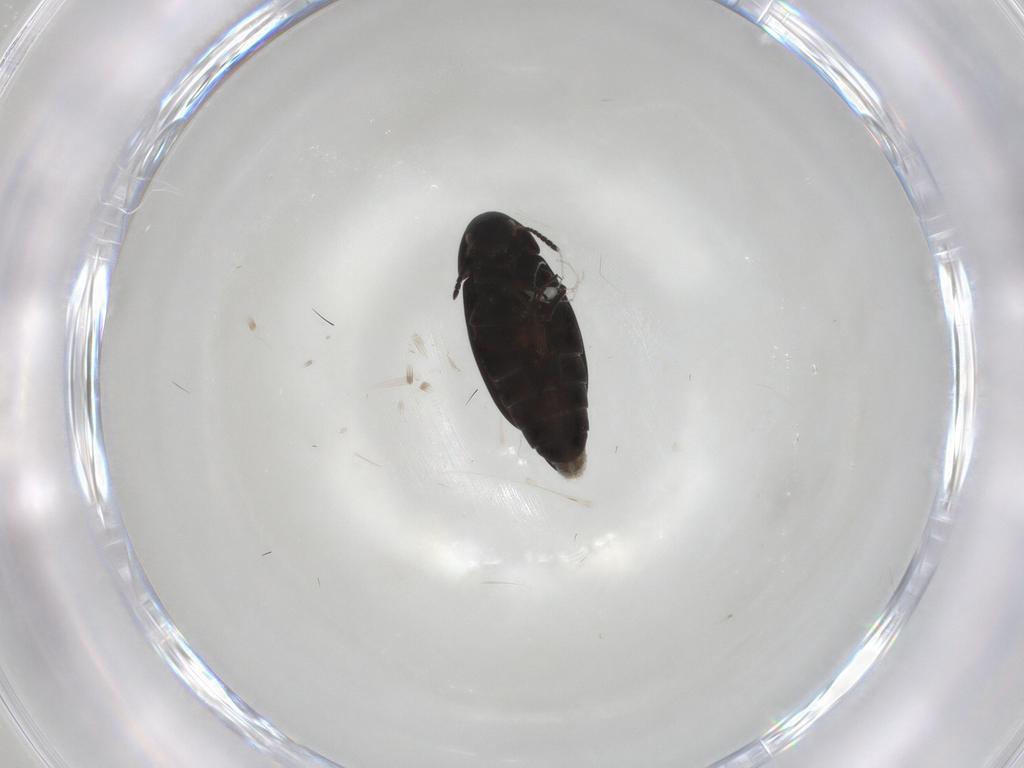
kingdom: Animalia
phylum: Arthropoda
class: Insecta
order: Coleoptera
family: Scraptiidae
